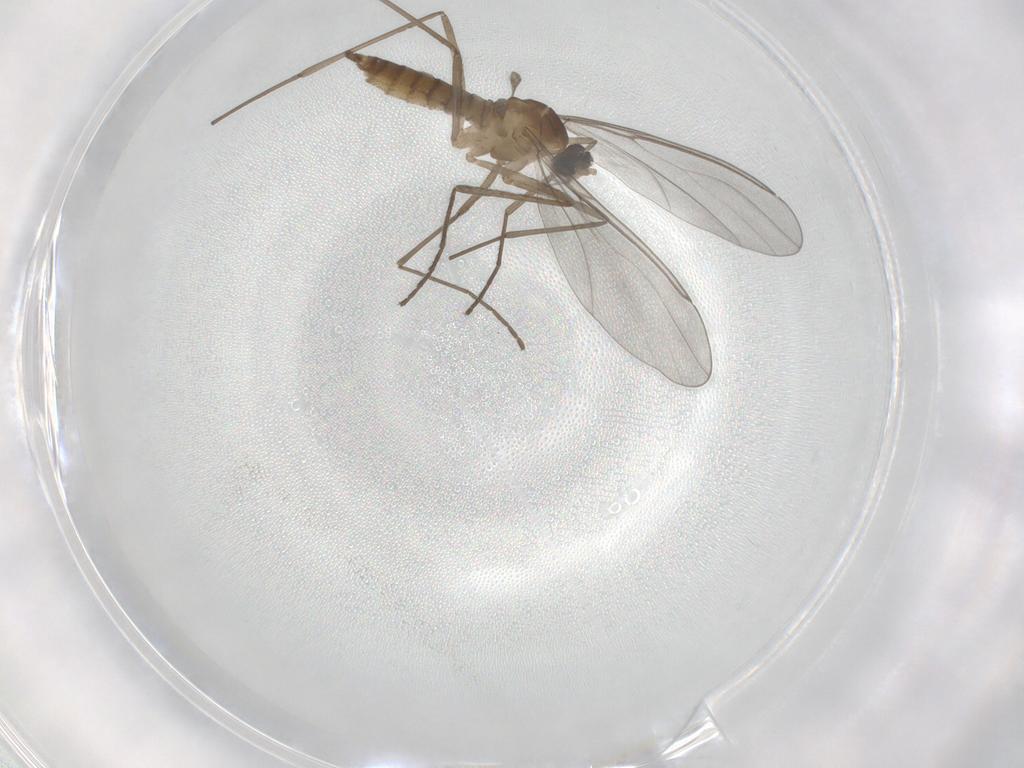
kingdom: Animalia
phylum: Arthropoda
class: Insecta
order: Diptera
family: Cecidomyiidae
